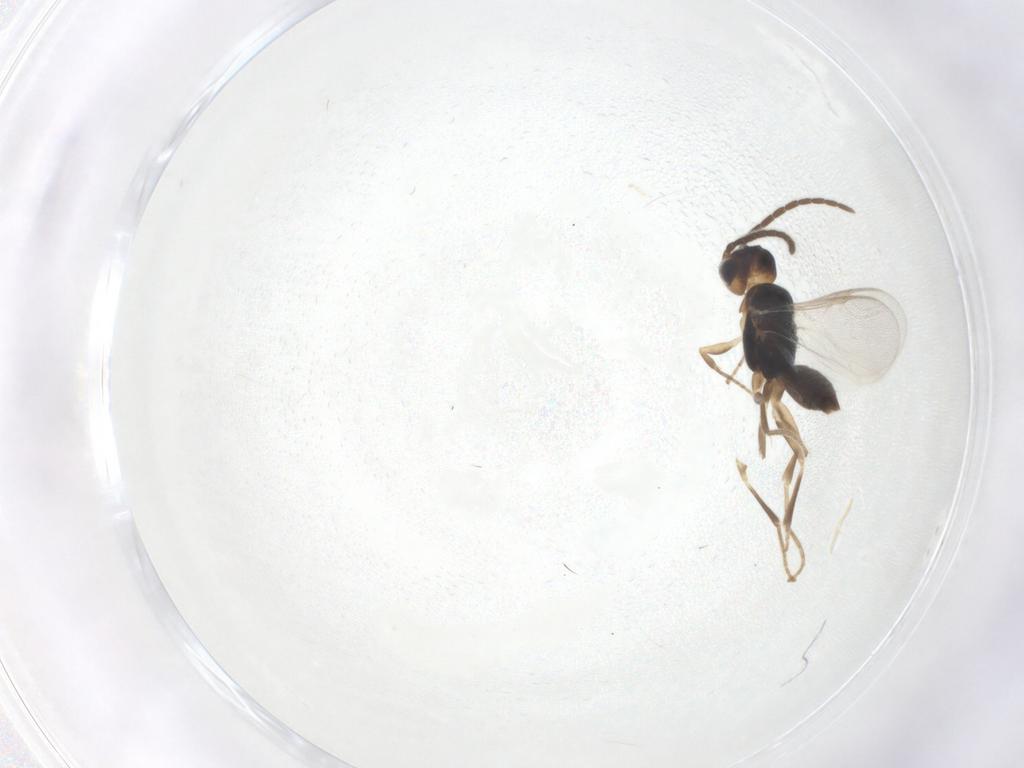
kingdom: Animalia
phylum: Arthropoda
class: Insecta
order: Hymenoptera
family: Dryinidae
